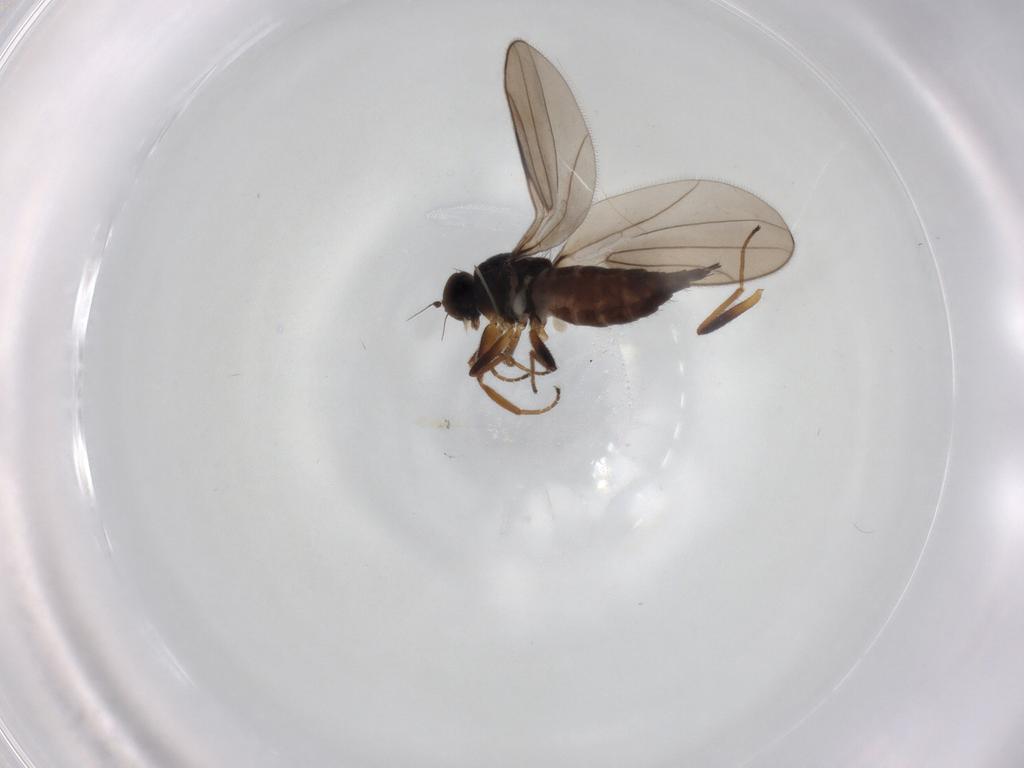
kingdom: Animalia
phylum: Arthropoda
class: Insecta
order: Diptera
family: Hybotidae
